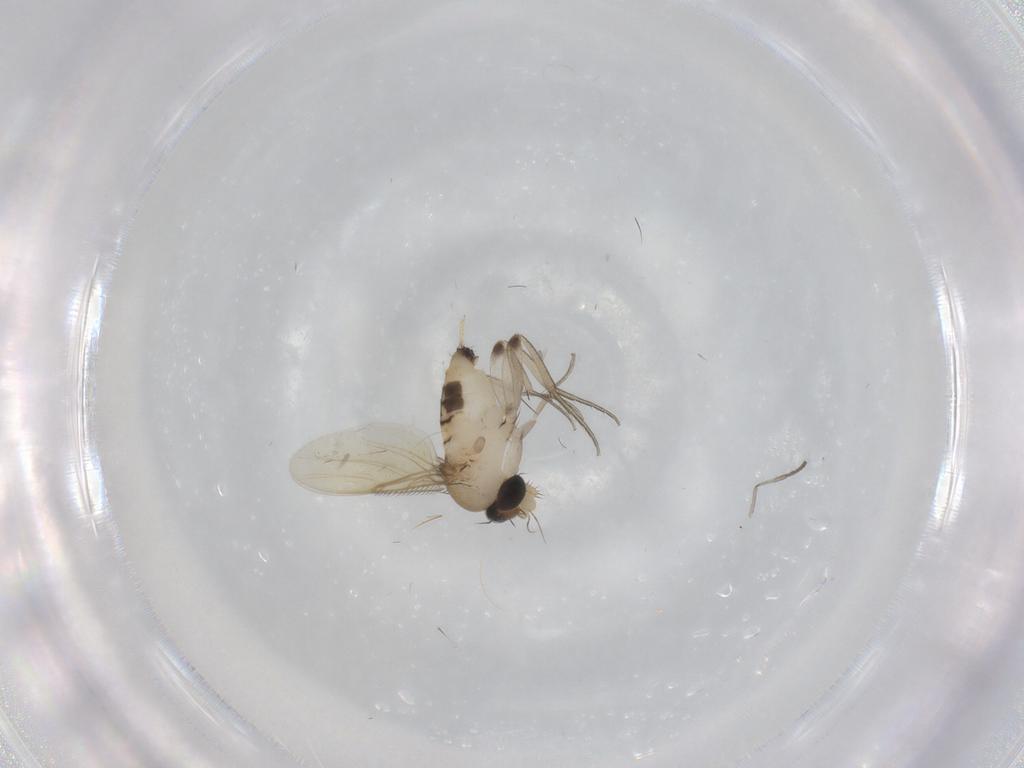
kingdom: Animalia
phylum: Arthropoda
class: Insecta
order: Diptera
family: Phoridae
